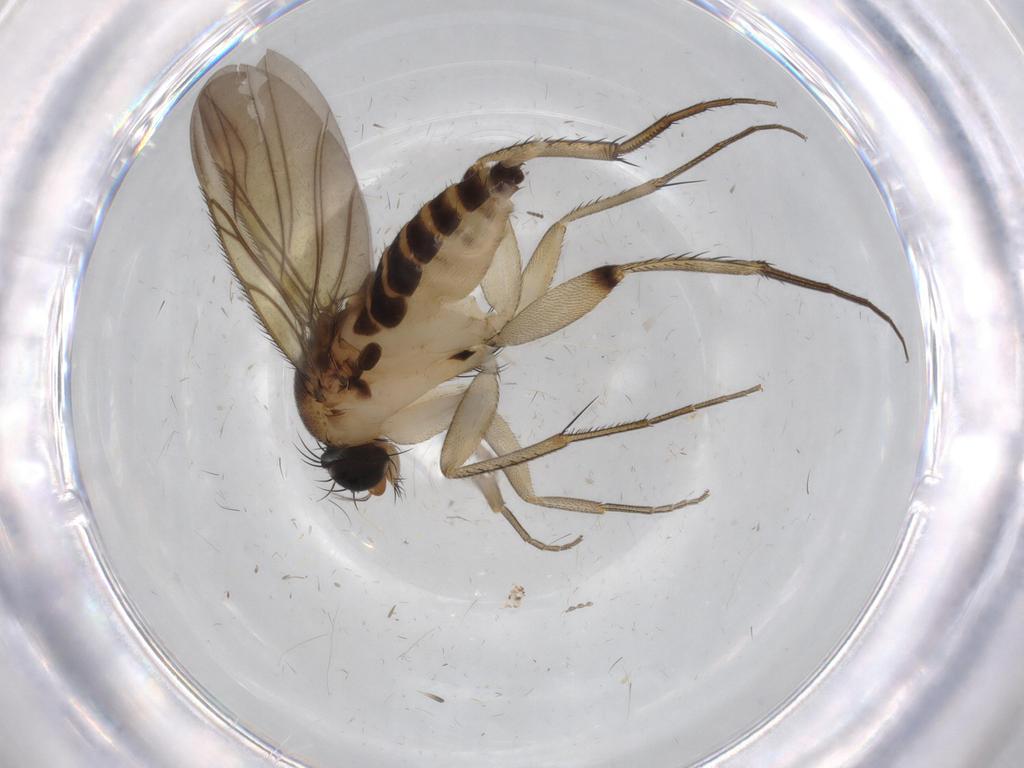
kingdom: Animalia
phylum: Arthropoda
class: Insecta
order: Diptera
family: Phoridae
